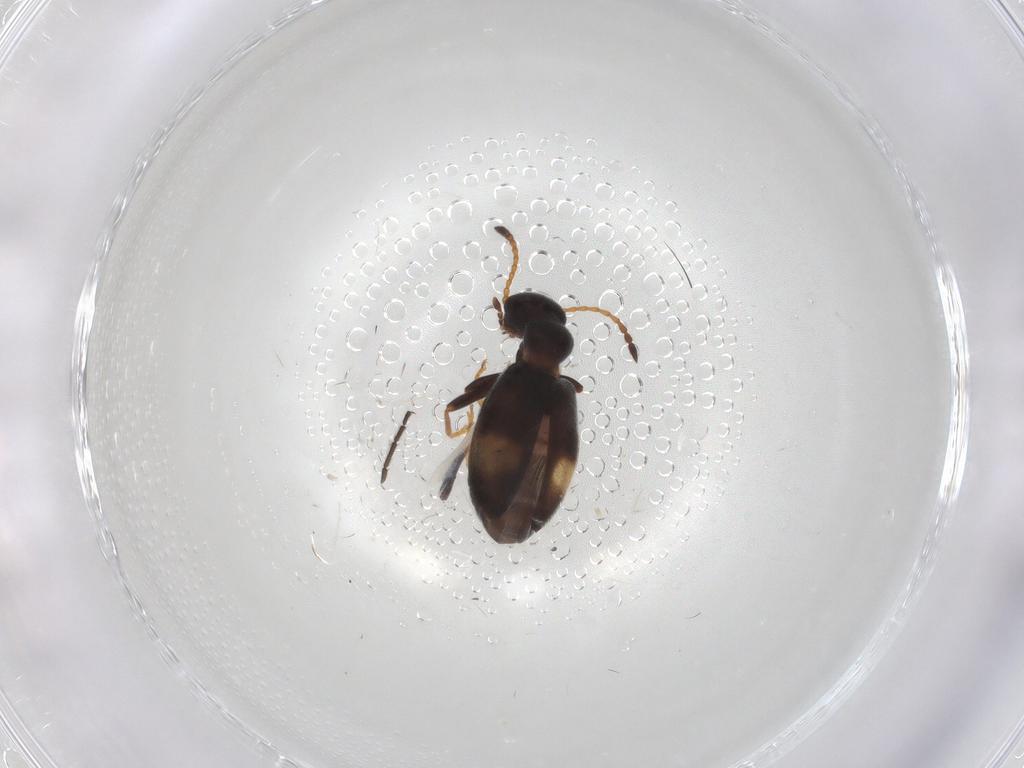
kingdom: Animalia
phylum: Arthropoda
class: Insecta
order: Coleoptera
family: Anthicidae
